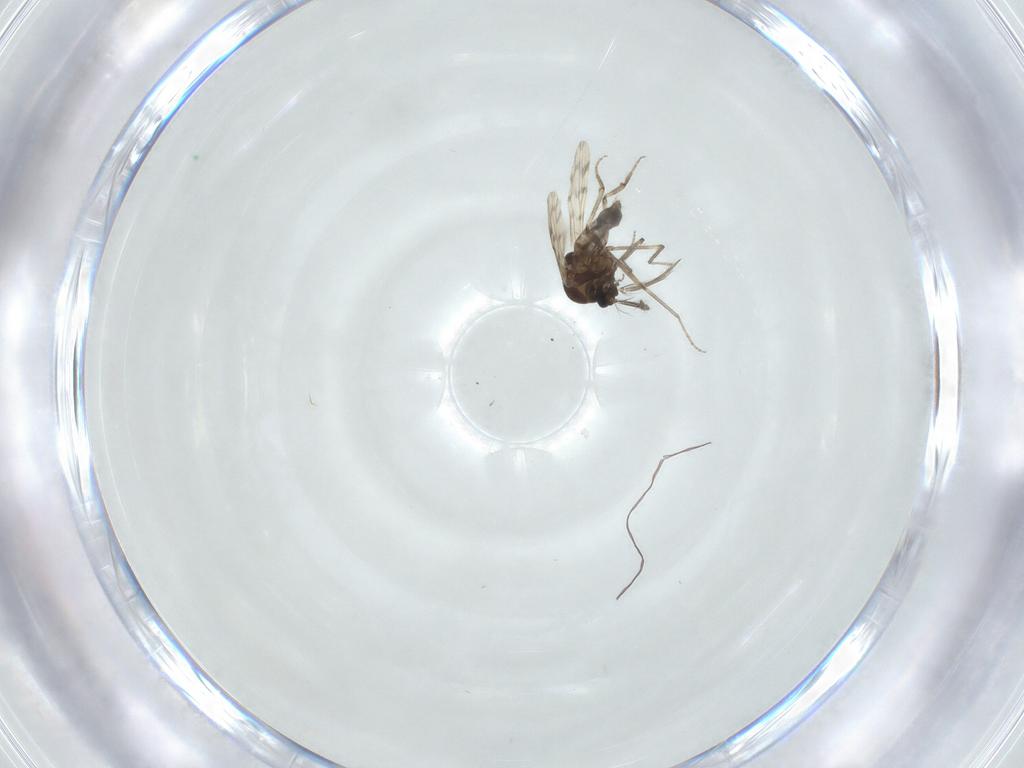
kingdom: Animalia
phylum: Arthropoda
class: Insecta
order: Diptera
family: Ceratopogonidae
